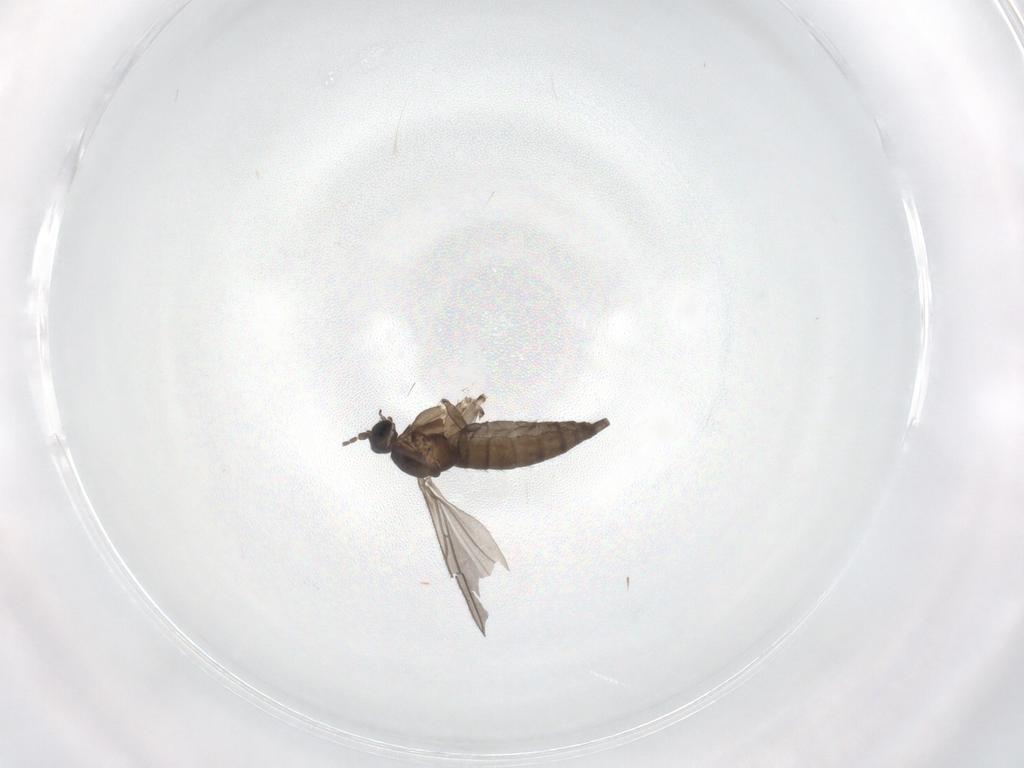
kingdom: Animalia
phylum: Arthropoda
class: Insecta
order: Diptera
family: Sciaridae
